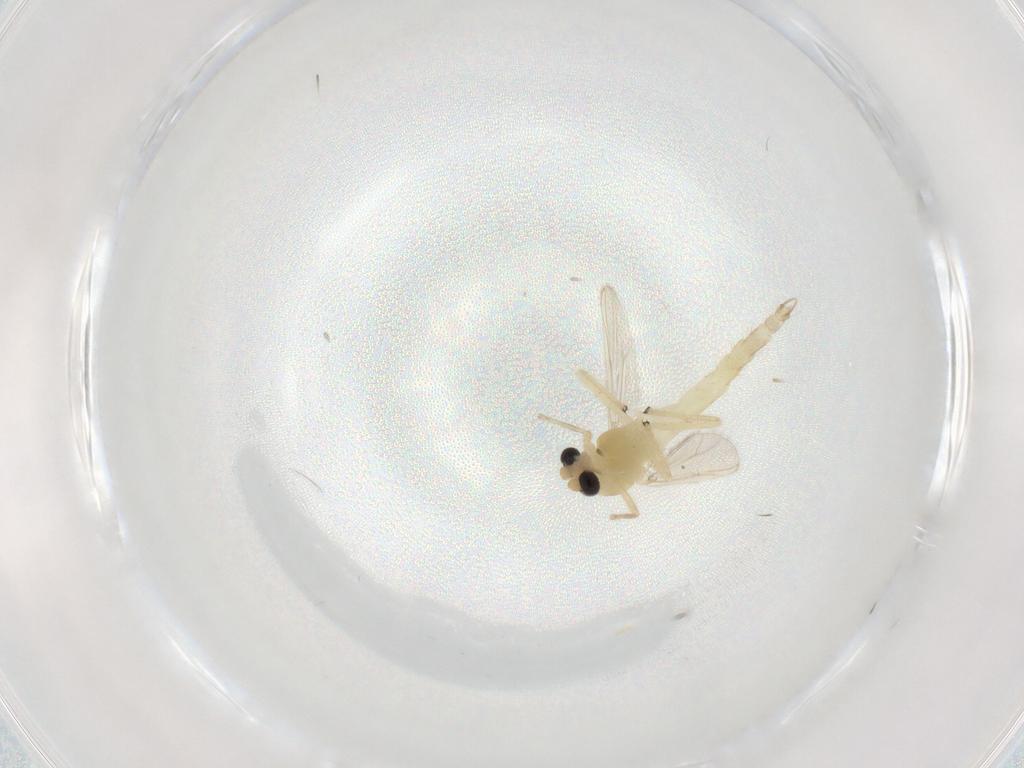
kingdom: Animalia
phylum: Arthropoda
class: Insecta
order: Diptera
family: Chironomidae
